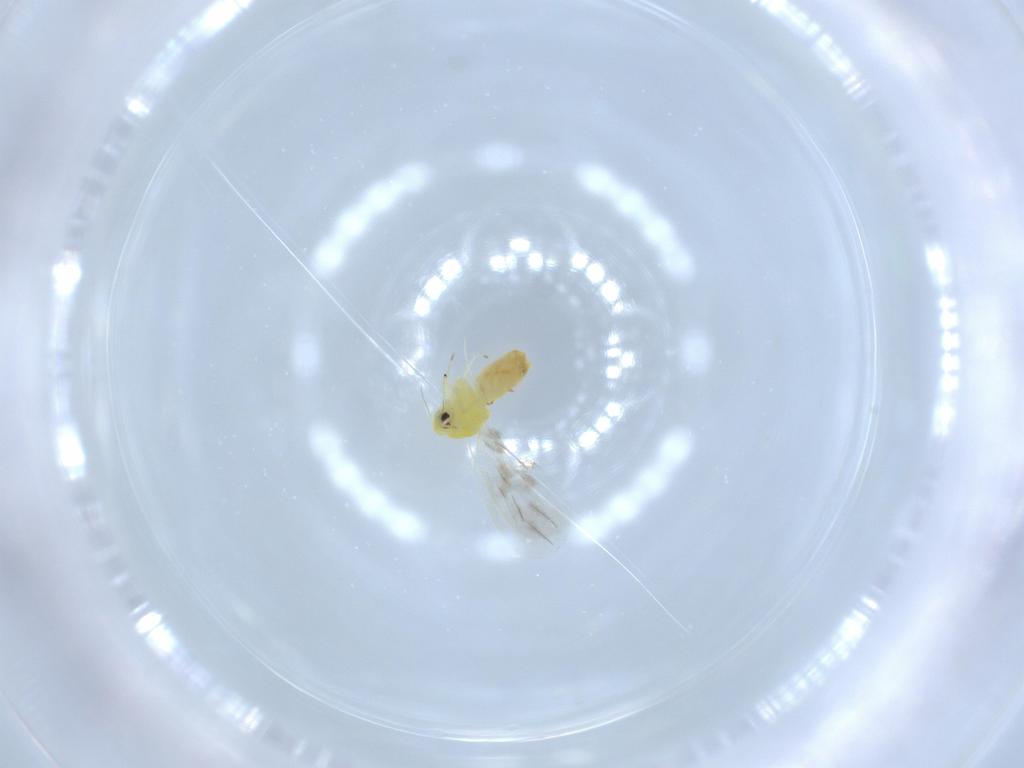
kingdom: Animalia
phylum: Arthropoda
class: Insecta
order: Hemiptera
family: Aleyrodidae
